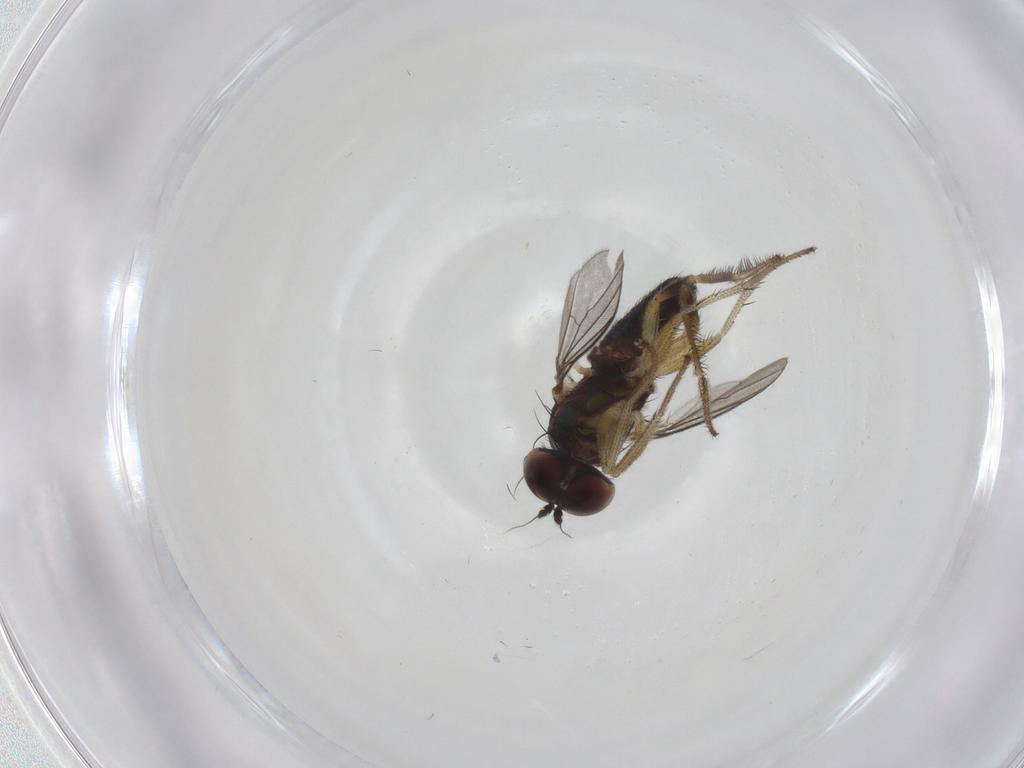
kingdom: Animalia
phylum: Arthropoda
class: Insecta
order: Diptera
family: Dolichopodidae
